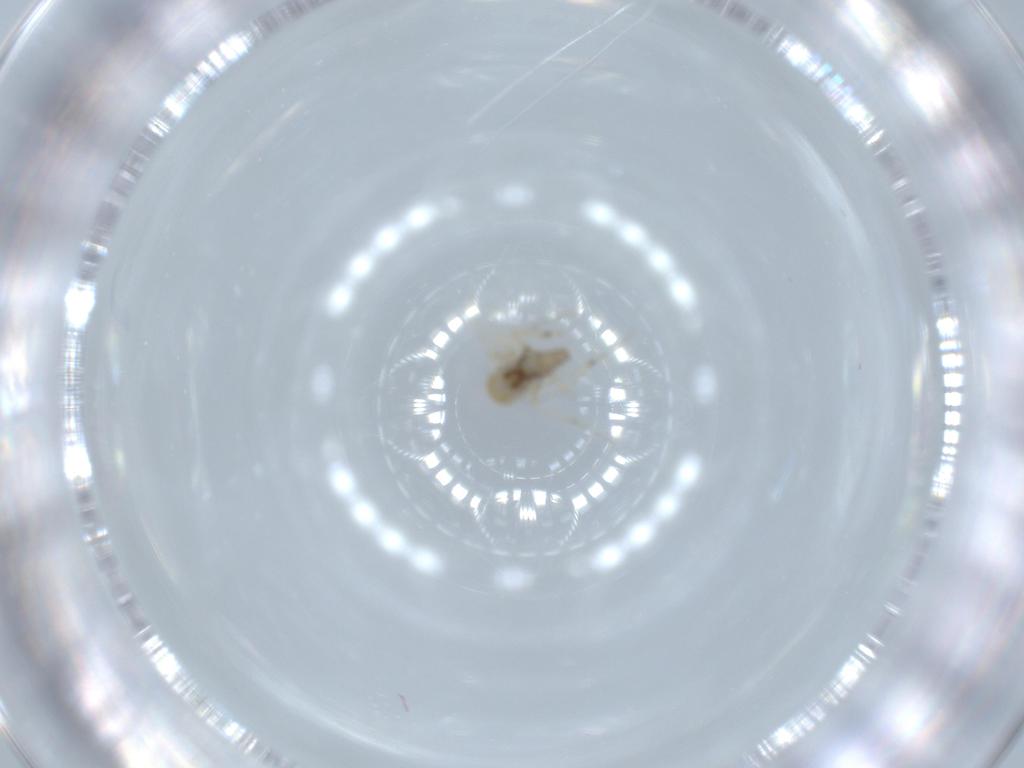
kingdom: Animalia
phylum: Arthropoda
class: Insecta
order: Diptera
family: Ceratopogonidae
